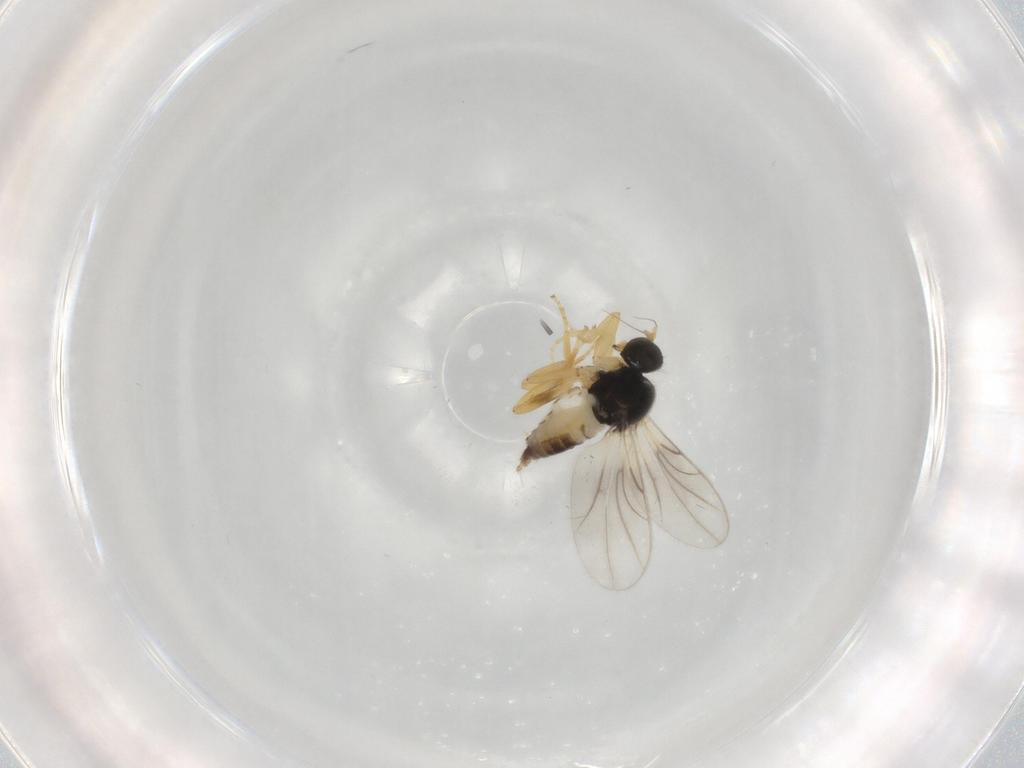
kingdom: Animalia
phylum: Arthropoda
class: Insecta
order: Diptera
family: Hybotidae
